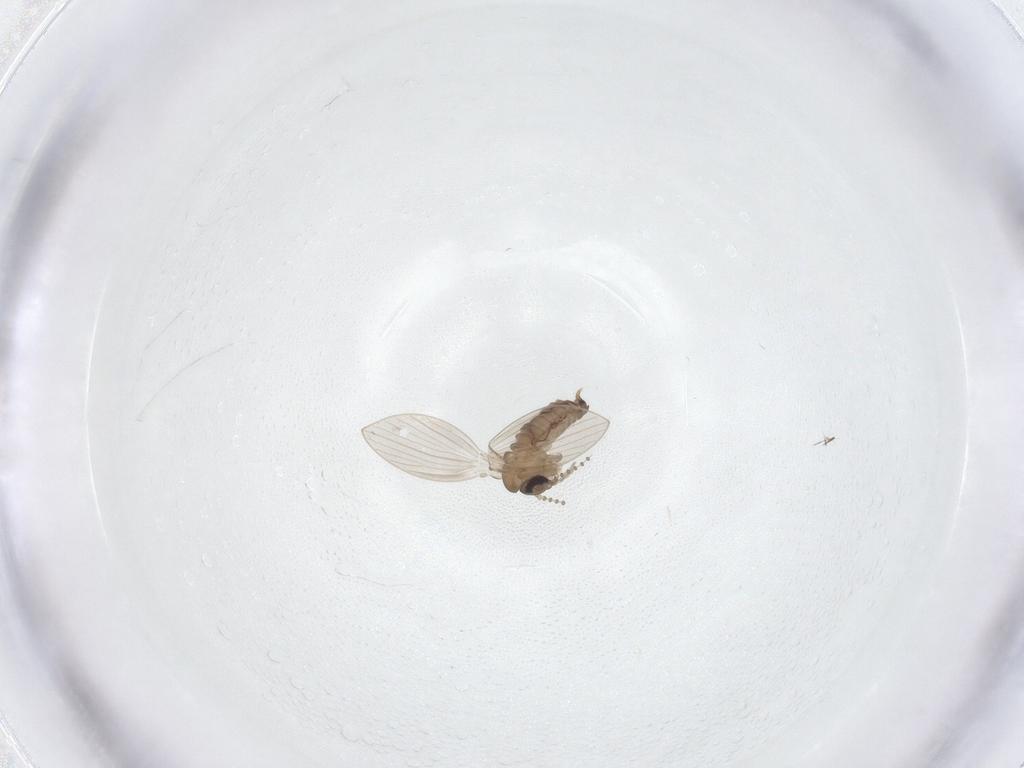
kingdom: Animalia
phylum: Arthropoda
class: Insecta
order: Diptera
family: Psychodidae
